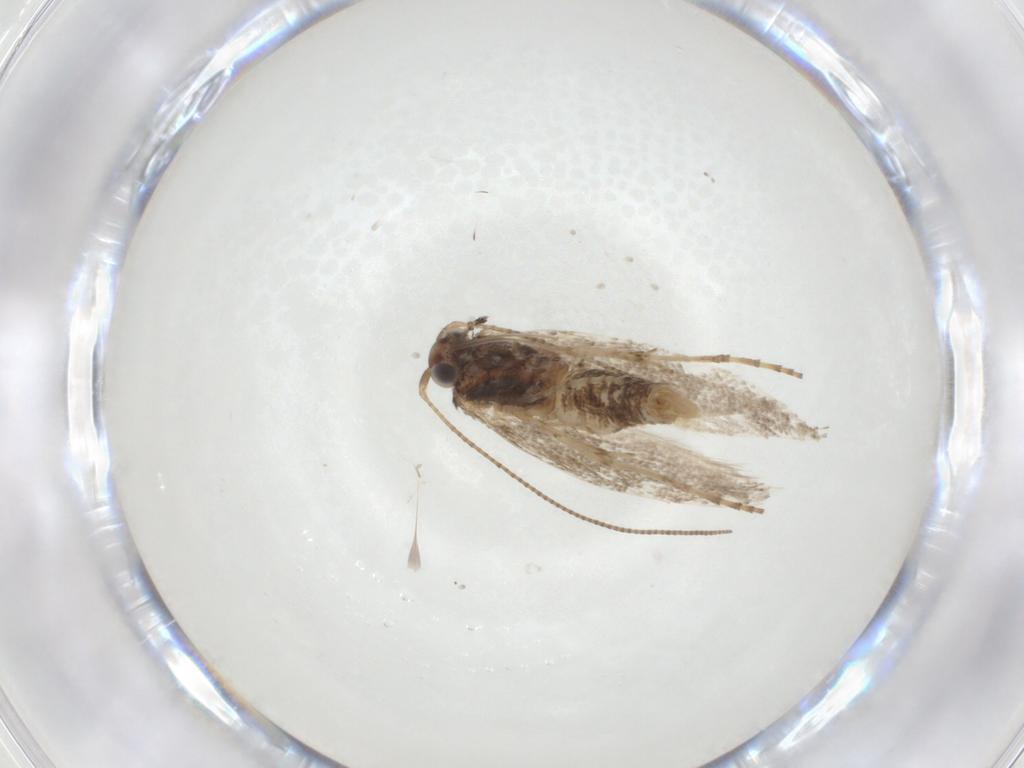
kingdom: Animalia
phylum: Arthropoda
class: Insecta
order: Lepidoptera
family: Gracillariidae
